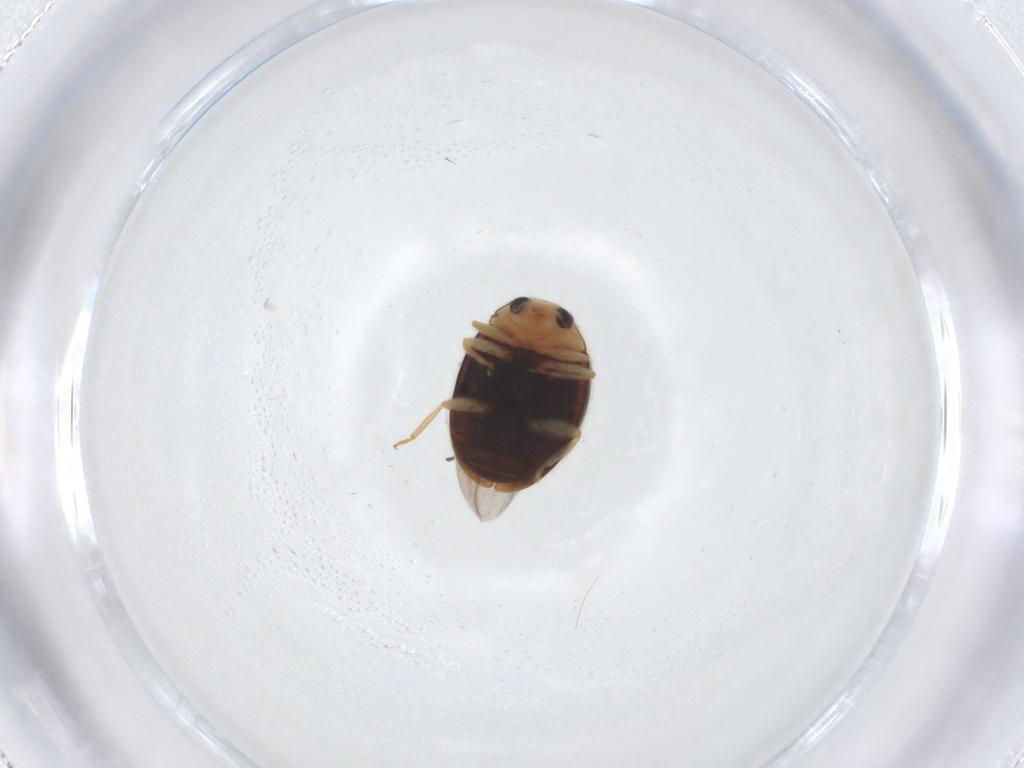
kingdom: Animalia
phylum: Arthropoda
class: Insecta
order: Coleoptera
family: Coccinellidae
